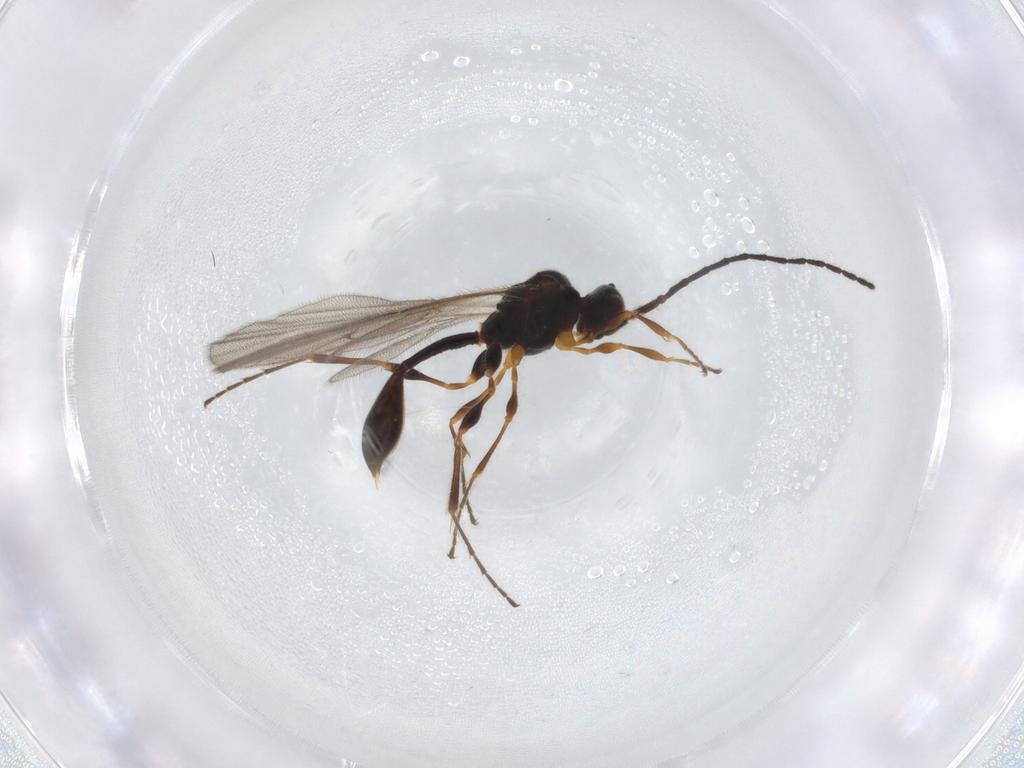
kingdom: Animalia
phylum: Arthropoda
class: Insecta
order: Hymenoptera
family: Diapriidae
